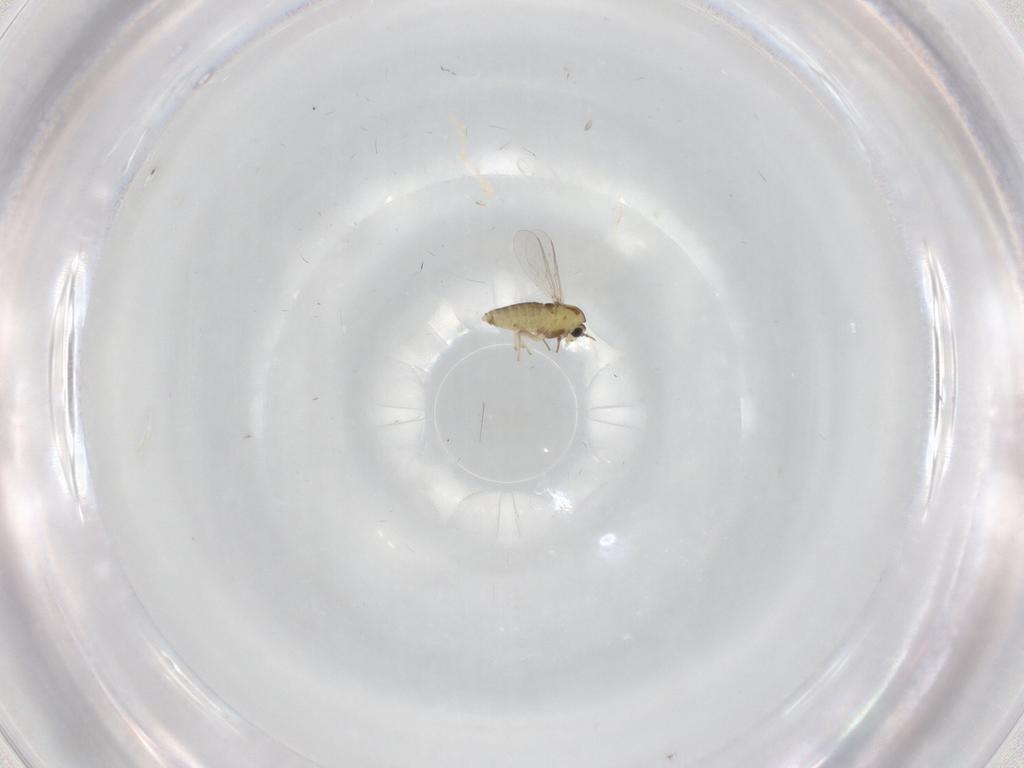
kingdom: Animalia
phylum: Arthropoda
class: Insecta
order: Diptera
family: Chironomidae
